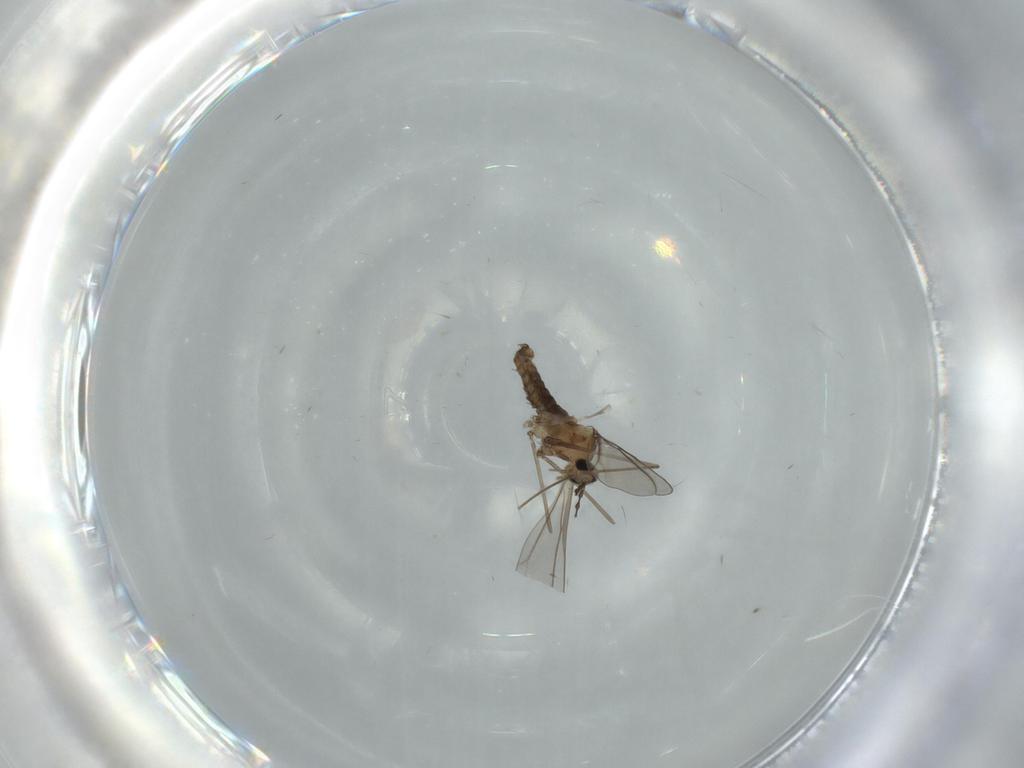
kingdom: Animalia
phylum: Arthropoda
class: Insecta
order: Diptera
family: Cecidomyiidae
